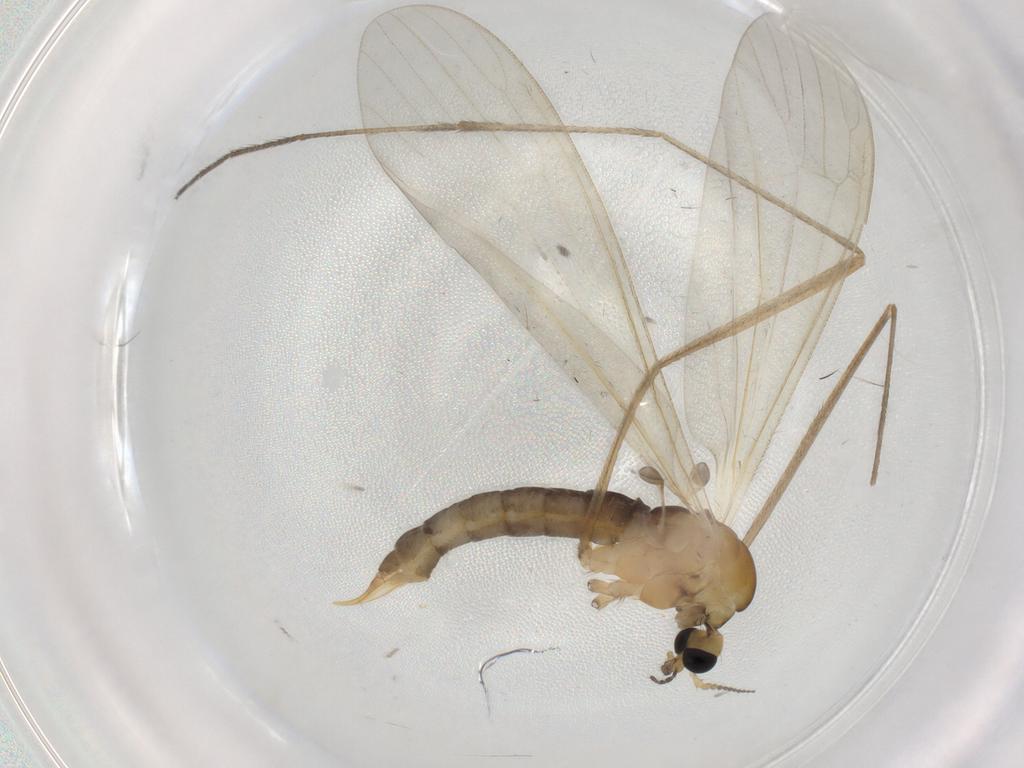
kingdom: Animalia
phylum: Arthropoda
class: Insecta
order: Diptera
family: Limoniidae
